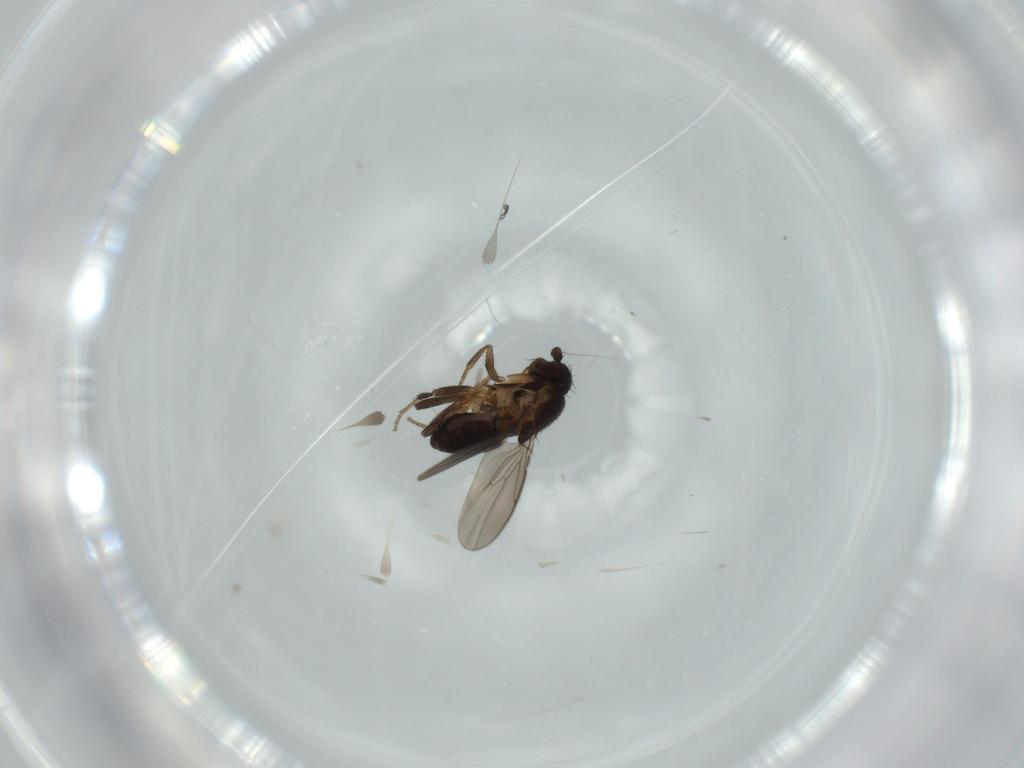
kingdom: Animalia
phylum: Arthropoda
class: Insecta
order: Diptera
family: Sphaeroceridae
